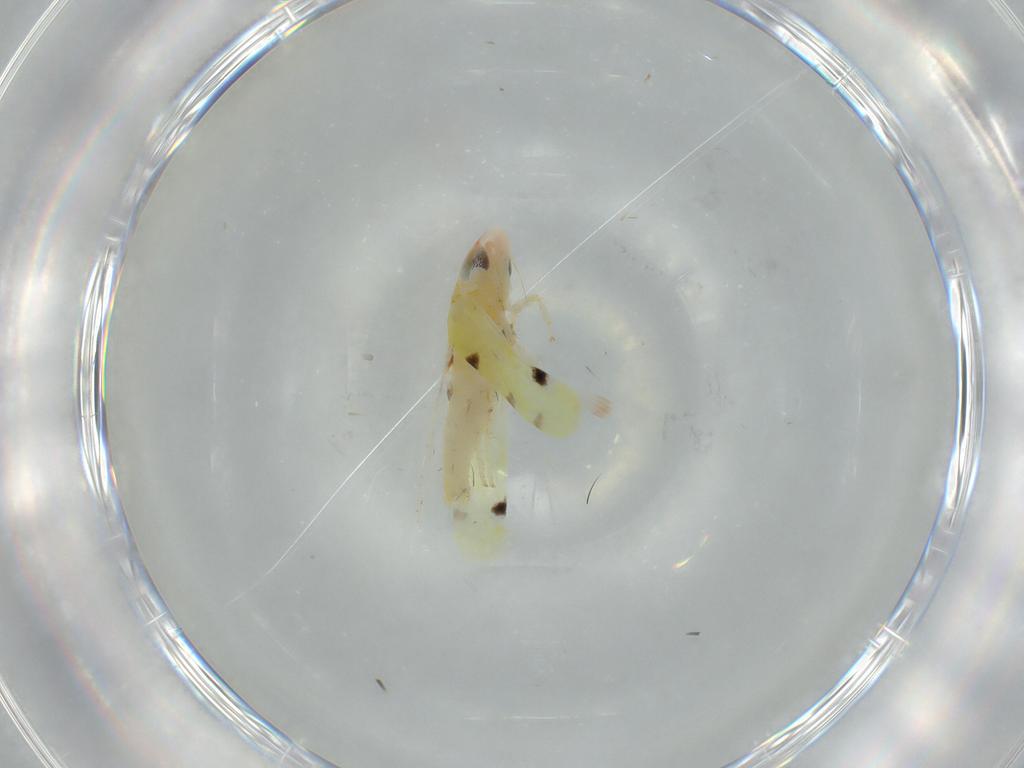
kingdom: Animalia
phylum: Arthropoda
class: Insecta
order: Hemiptera
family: Cicadellidae
